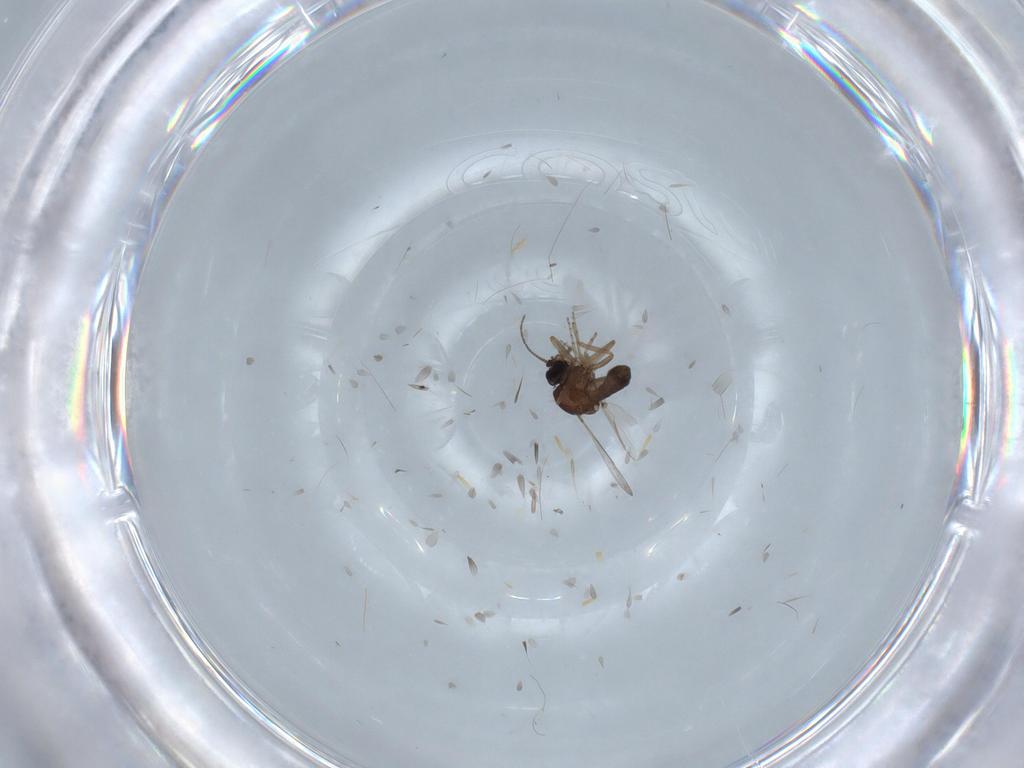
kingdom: Animalia
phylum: Arthropoda
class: Insecta
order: Diptera
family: Ceratopogonidae
